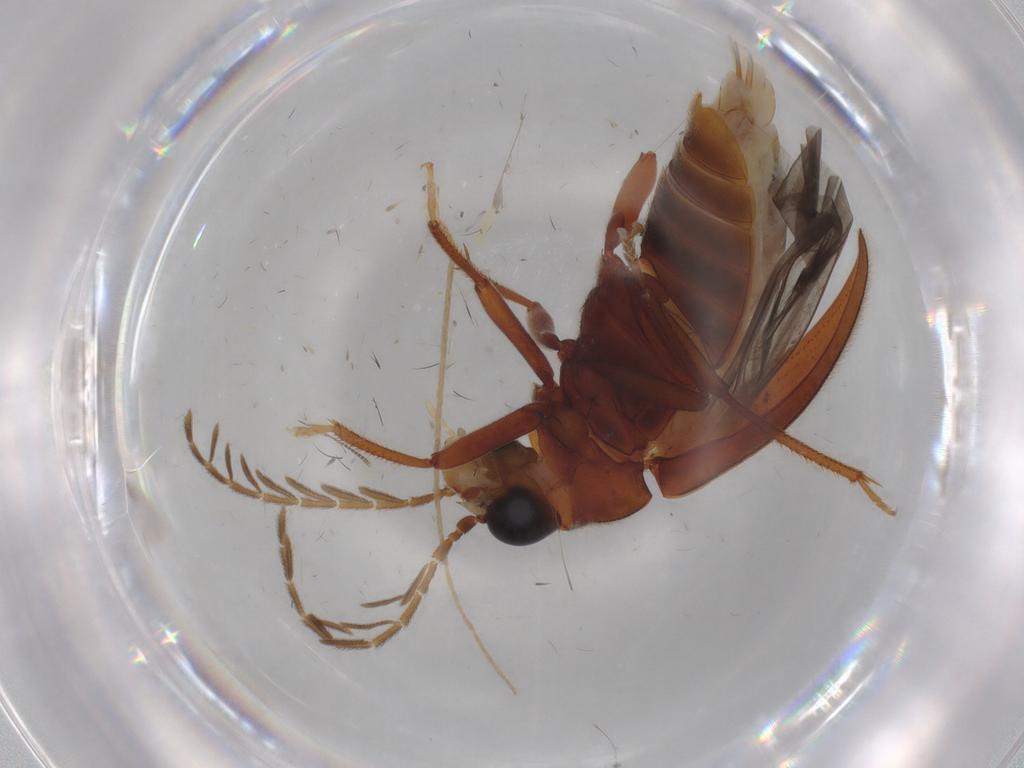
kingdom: Animalia
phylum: Arthropoda
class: Insecta
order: Coleoptera
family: Ptilodactylidae
